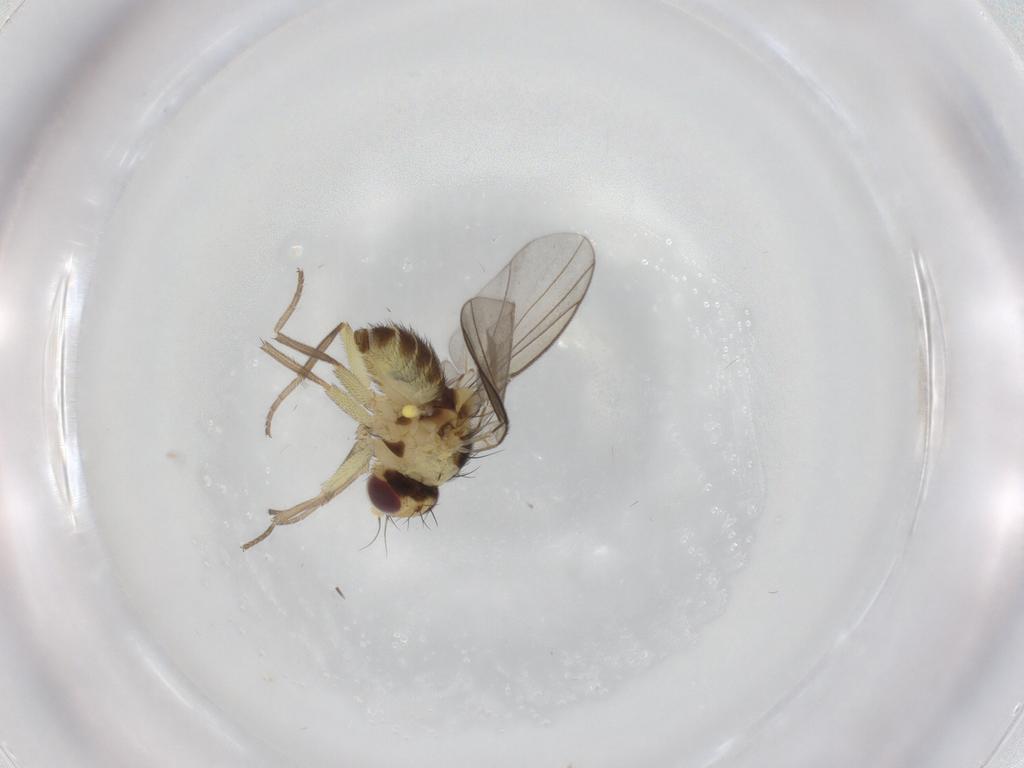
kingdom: Animalia
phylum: Arthropoda
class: Insecta
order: Diptera
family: Agromyzidae
